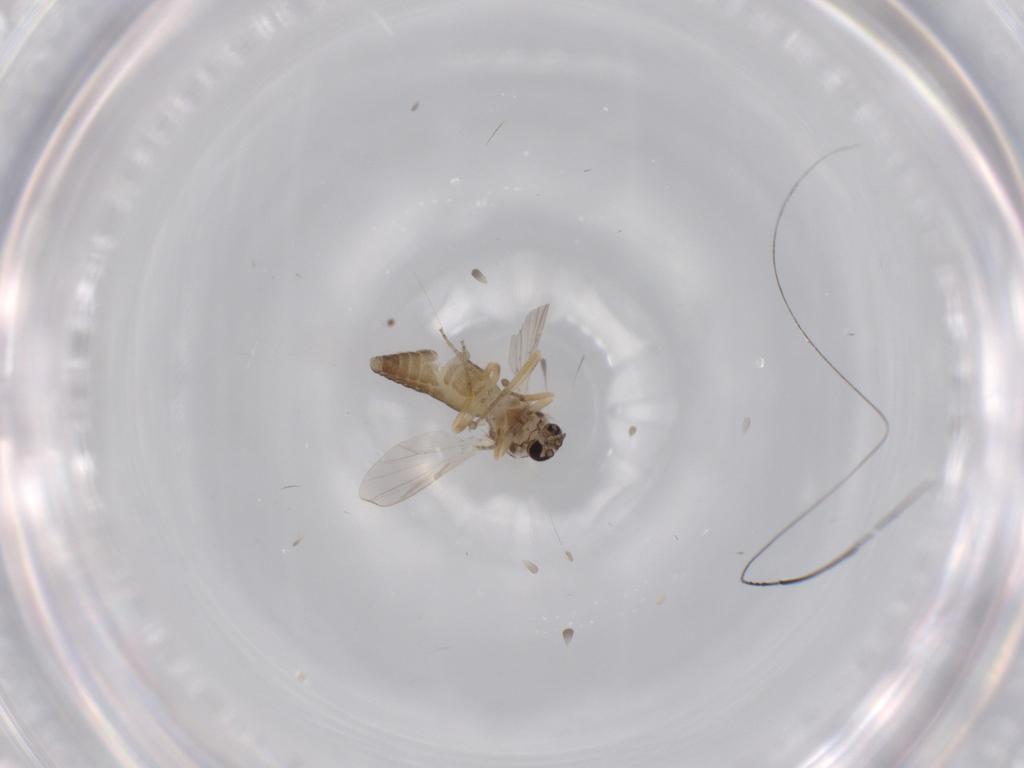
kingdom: Animalia
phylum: Arthropoda
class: Insecta
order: Diptera
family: Ceratopogonidae
